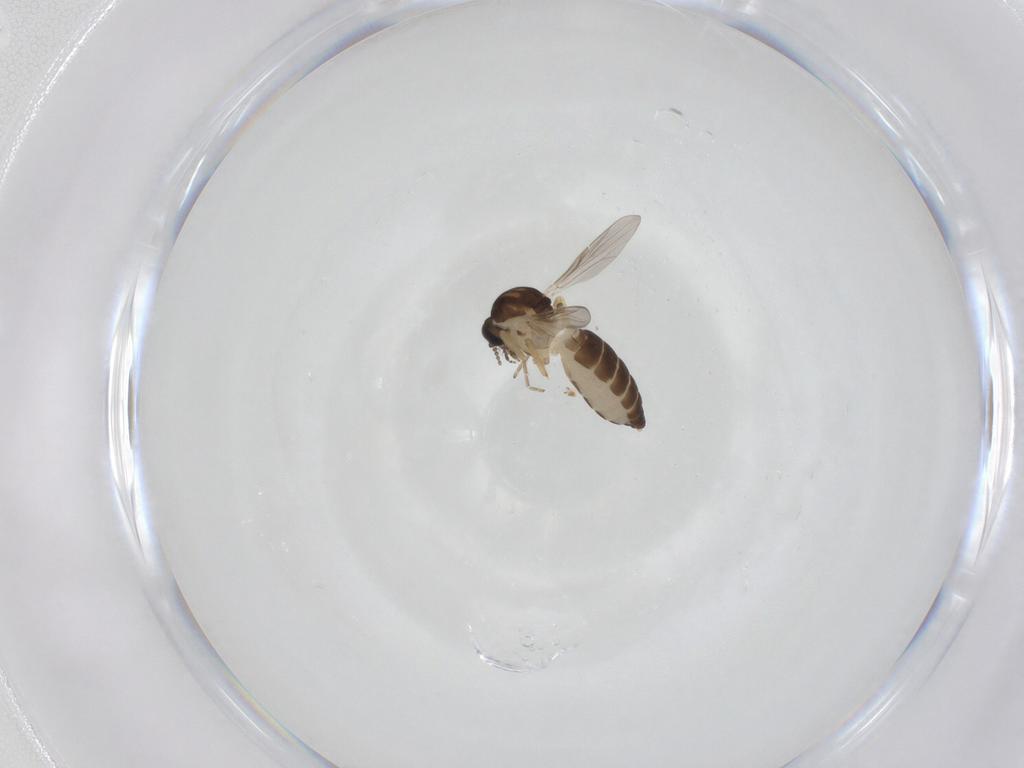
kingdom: Animalia
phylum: Arthropoda
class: Insecta
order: Diptera
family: Ceratopogonidae
